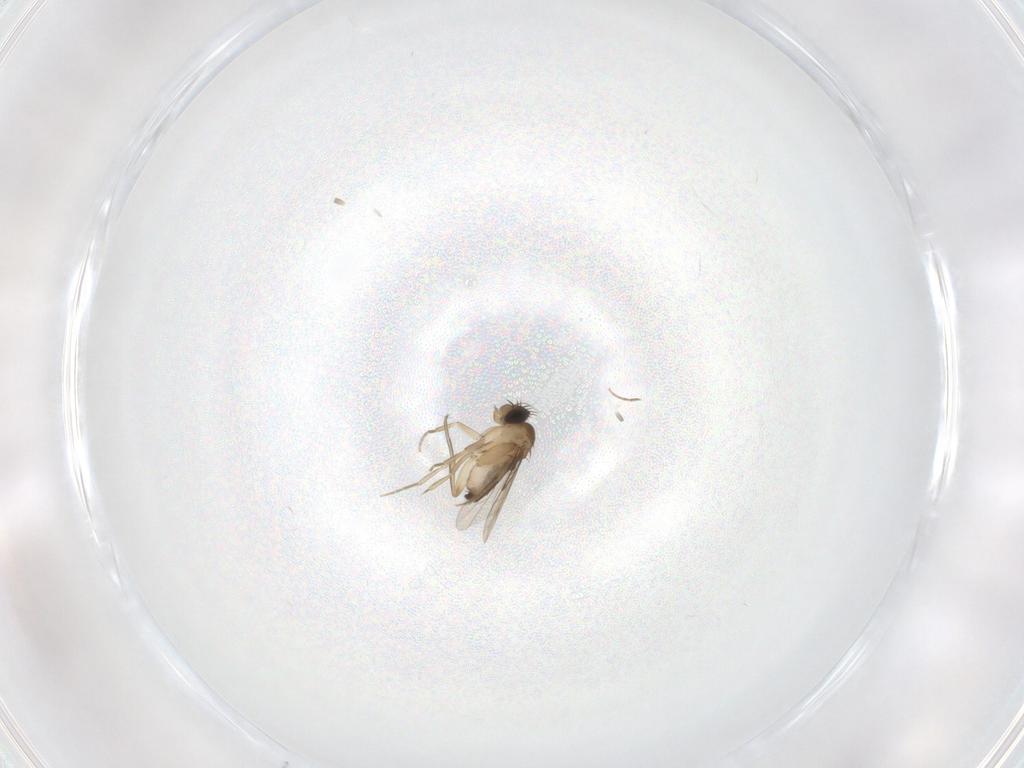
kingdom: Animalia
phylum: Arthropoda
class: Insecta
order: Diptera
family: Phoridae
